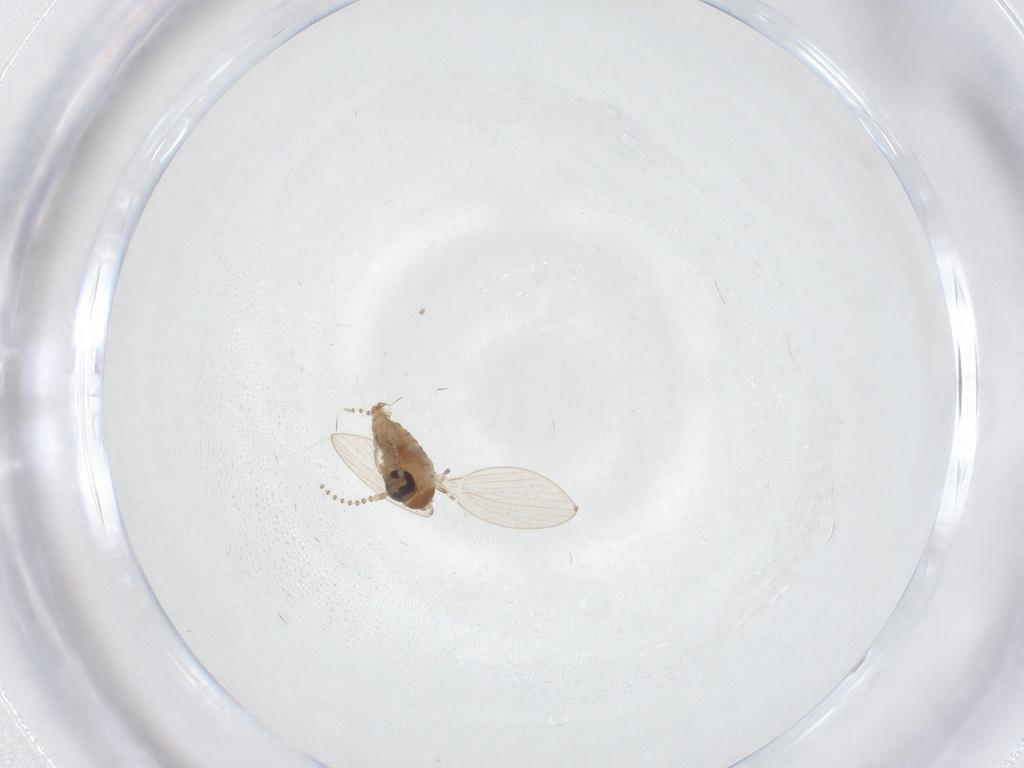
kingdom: Animalia
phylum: Arthropoda
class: Insecta
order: Diptera
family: Psychodidae
